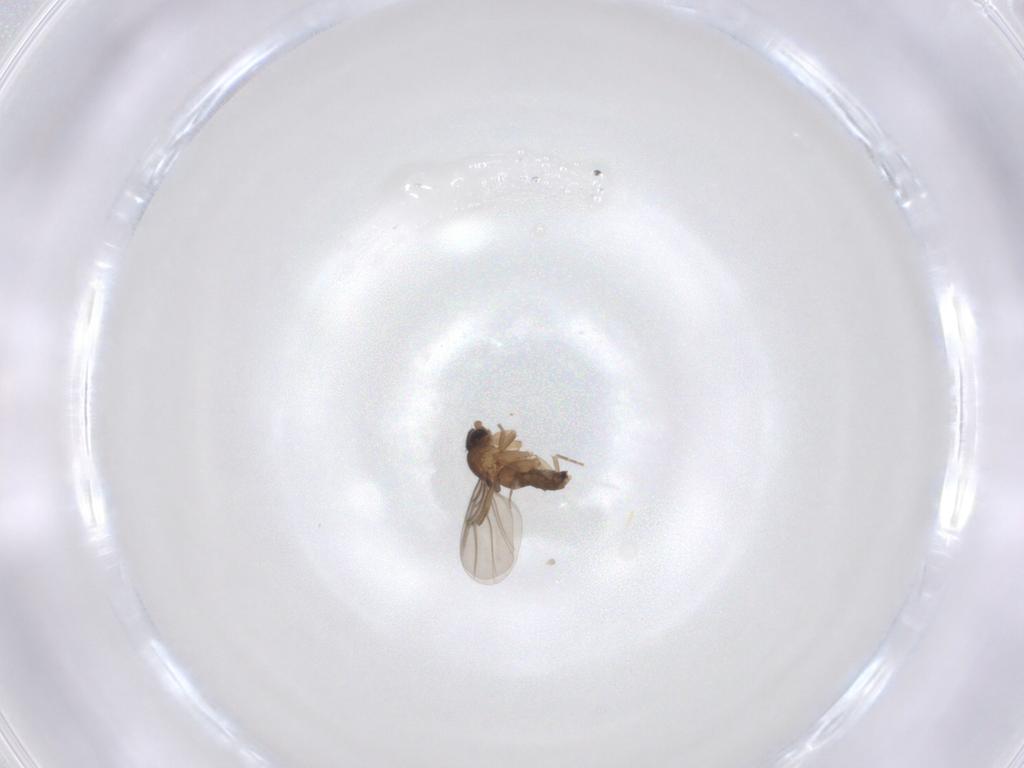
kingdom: Animalia
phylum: Arthropoda
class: Insecta
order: Diptera
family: Phoridae
